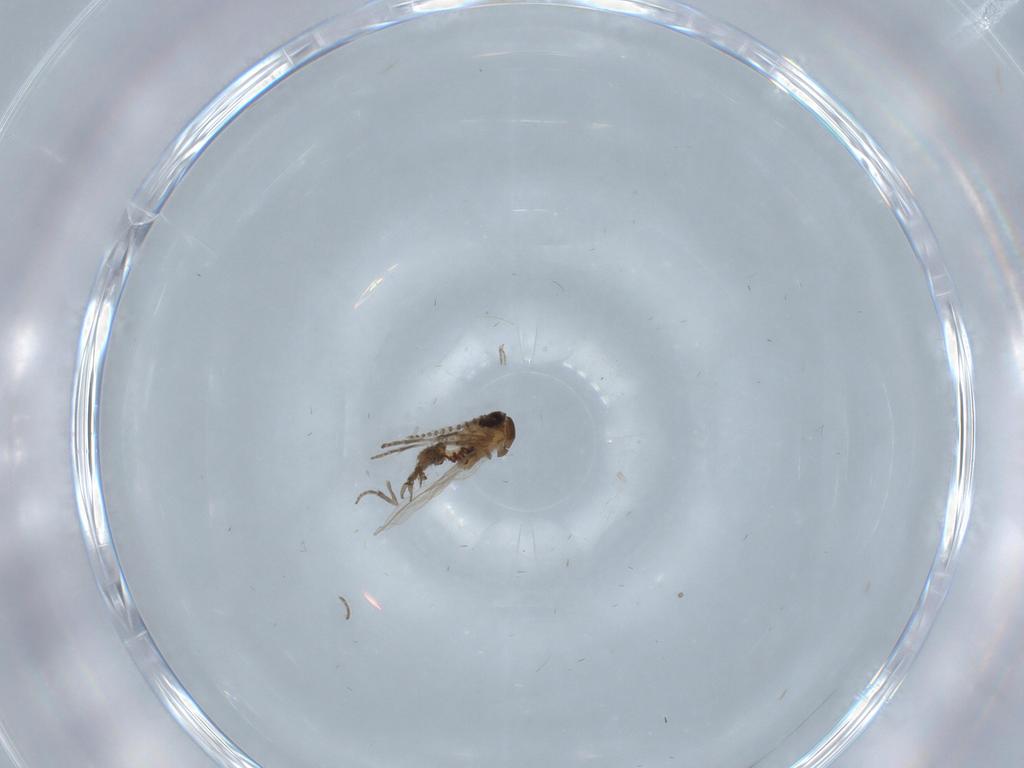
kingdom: Animalia
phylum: Arthropoda
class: Insecta
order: Diptera
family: Psychodidae
